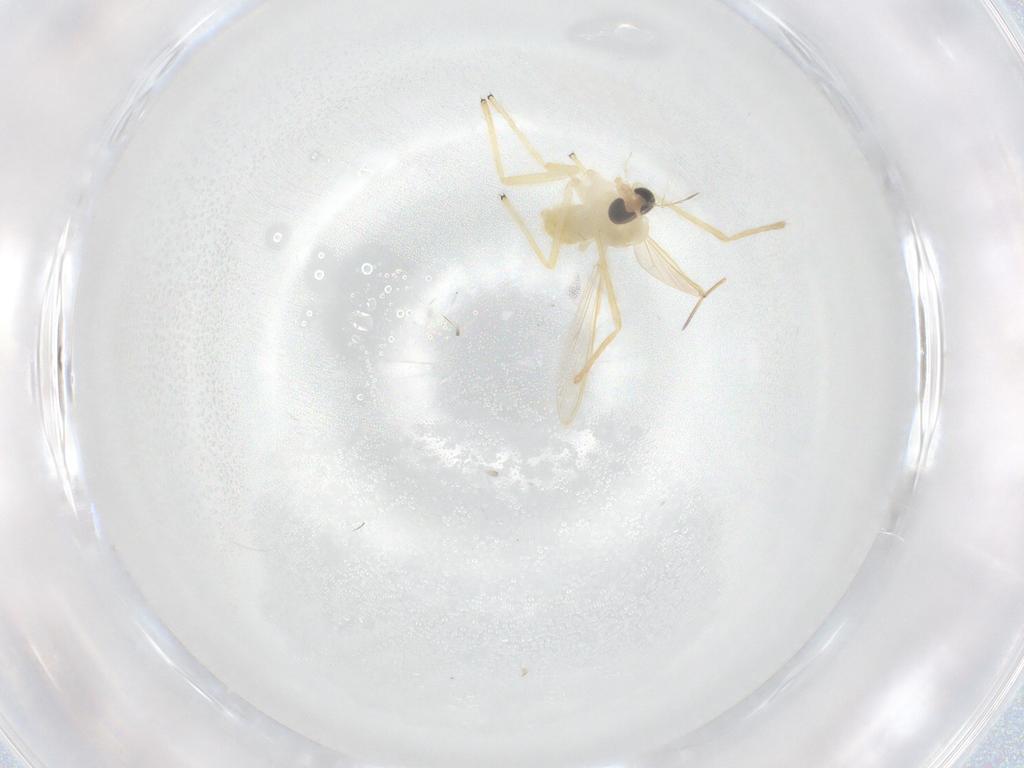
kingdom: Animalia
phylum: Arthropoda
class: Insecta
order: Diptera
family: Chironomidae
